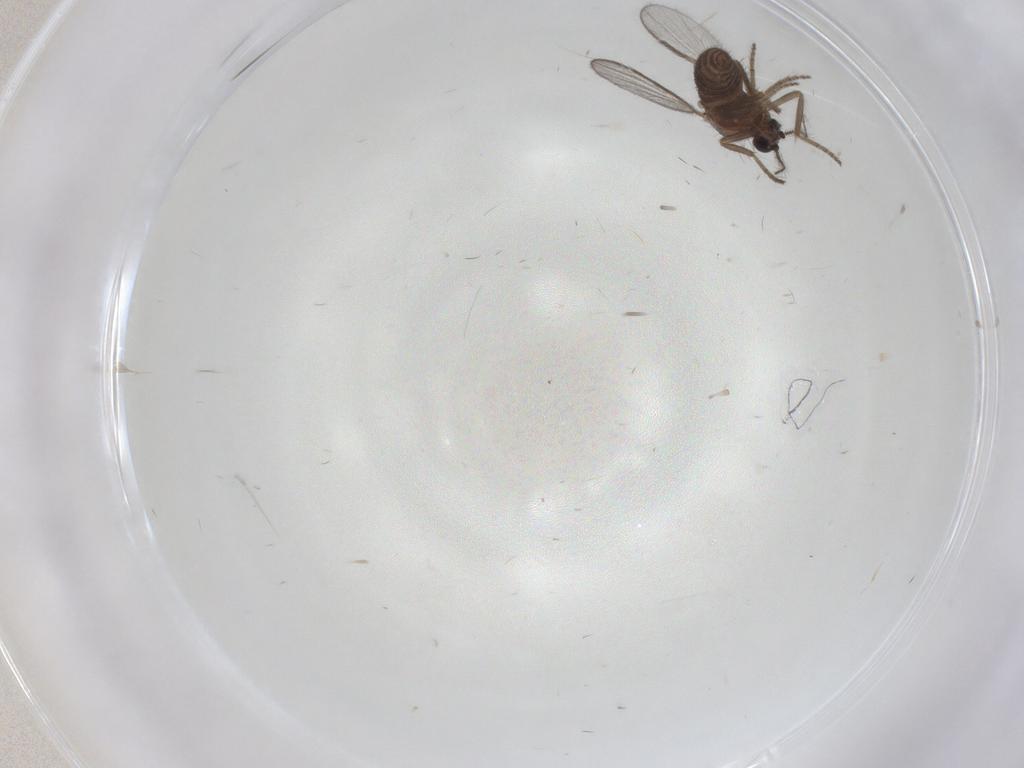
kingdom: Animalia
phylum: Arthropoda
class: Insecta
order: Diptera
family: Ceratopogonidae
